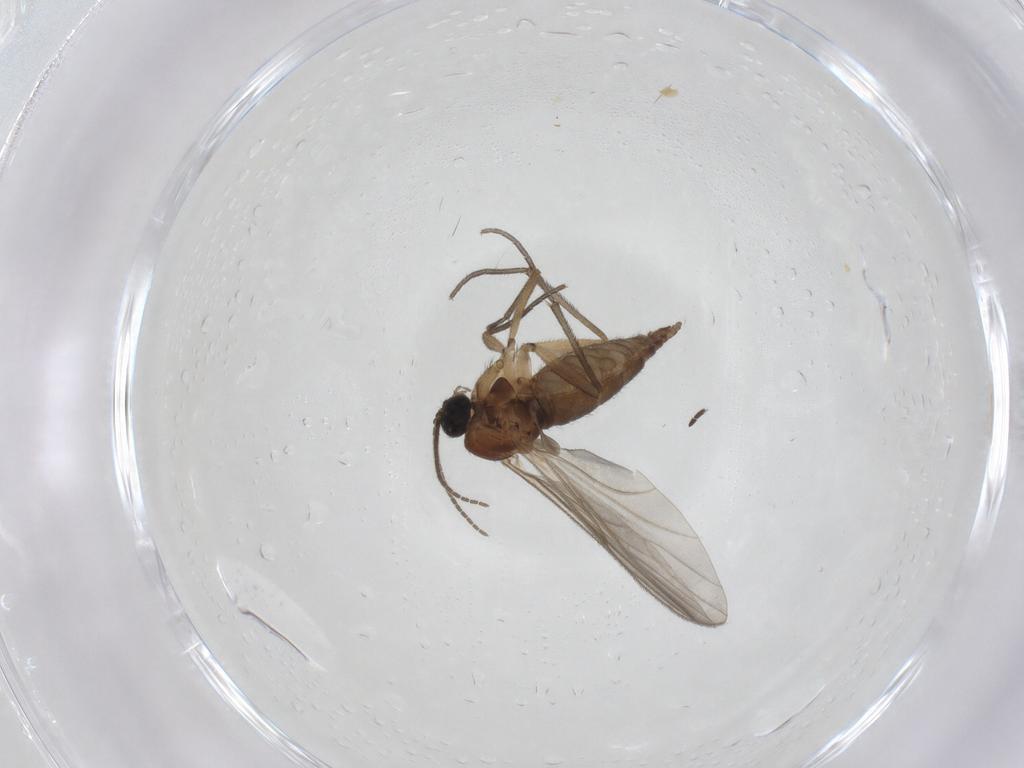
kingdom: Animalia
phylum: Arthropoda
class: Insecta
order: Diptera
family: Sciaridae
